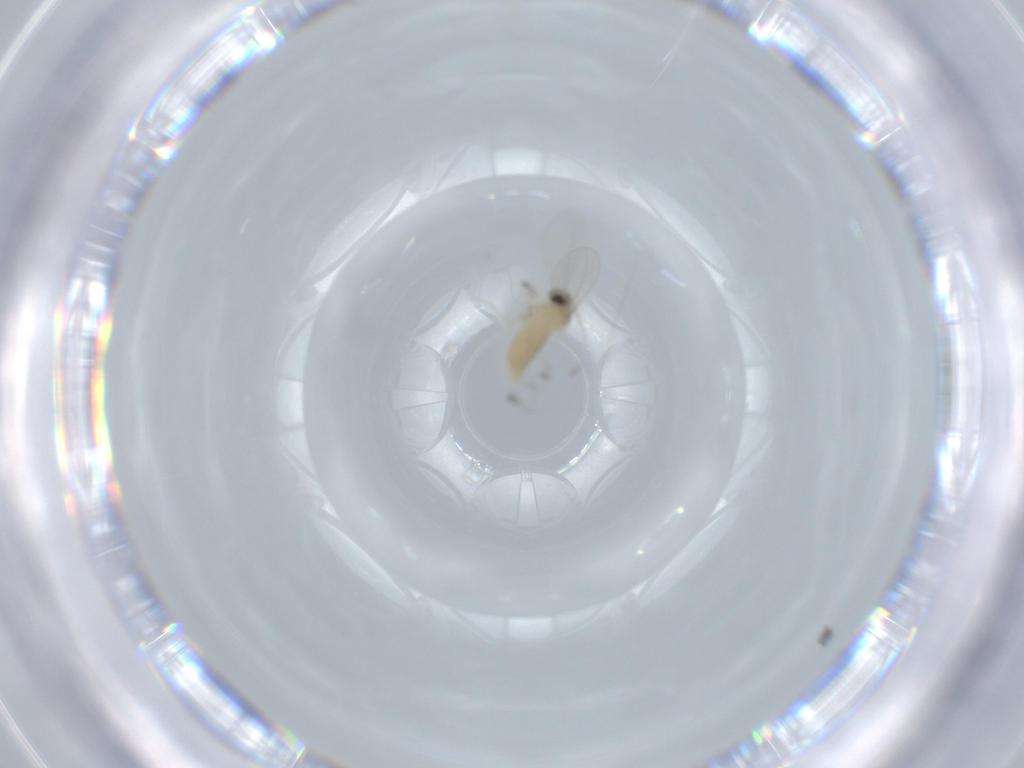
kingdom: Animalia
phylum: Arthropoda
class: Insecta
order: Diptera
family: Cecidomyiidae
